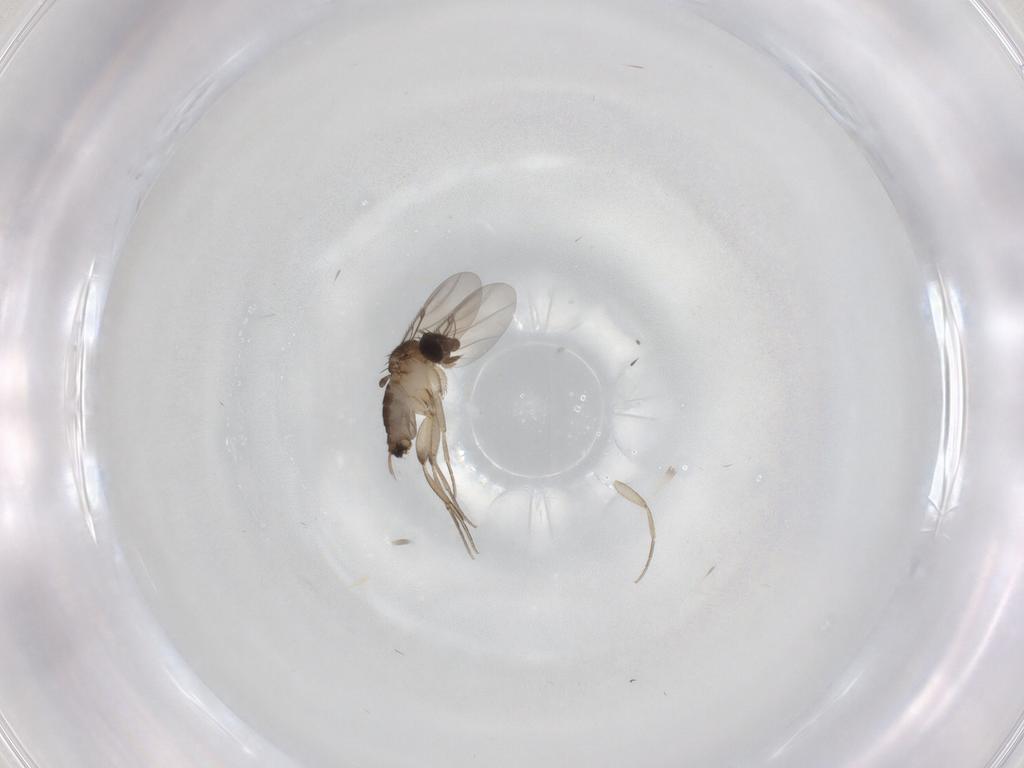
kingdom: Animalia
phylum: Arthropoda
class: Insecta
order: Diptera
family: Phoridae
